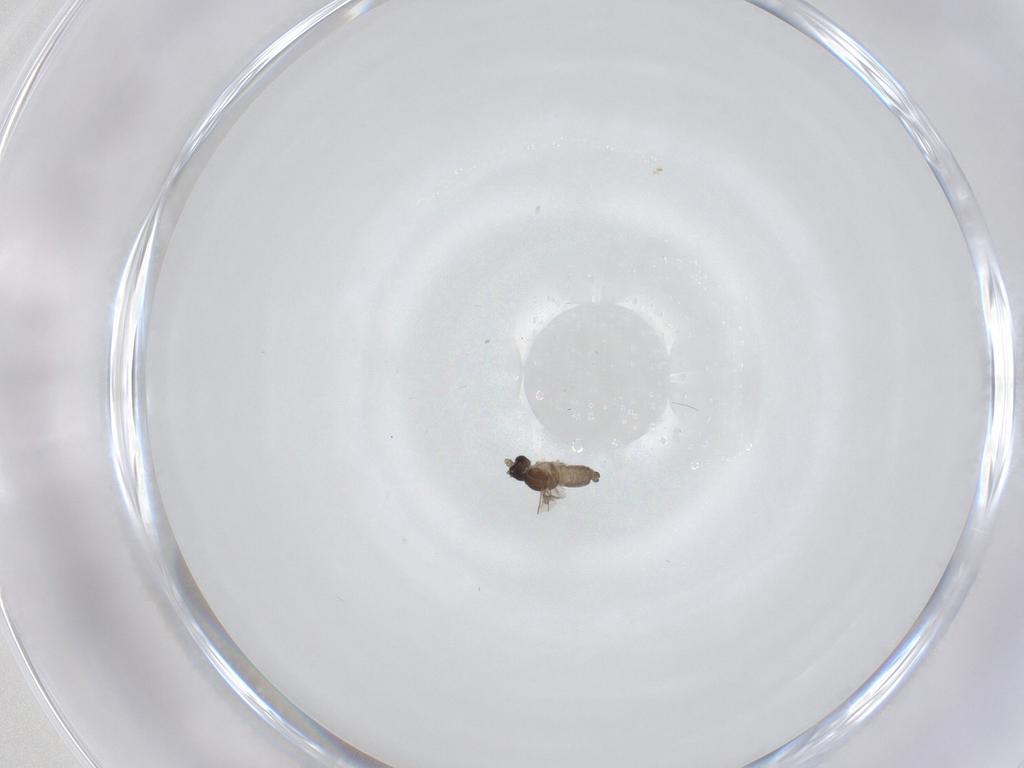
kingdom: Animalia
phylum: Arthropoda
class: Insecta
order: Diptera
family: Cecidomyiidae
